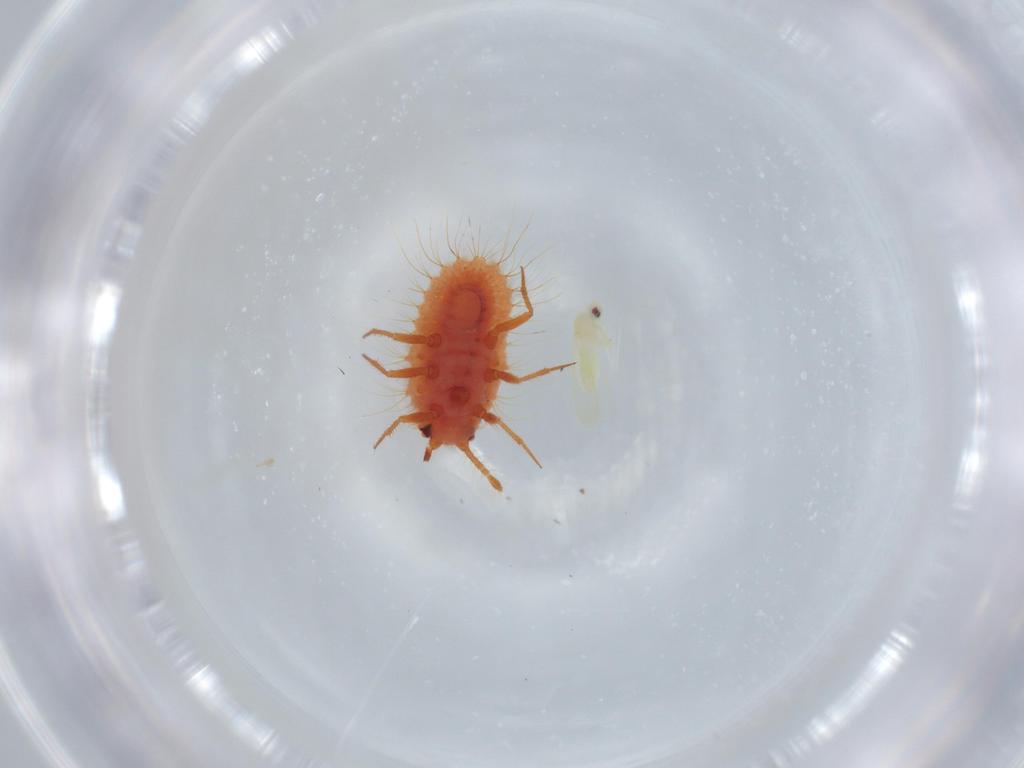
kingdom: Animalia
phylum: Arthropoda
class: Insecta
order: Hemiptera
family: Coccoidea_incertae_sedis
